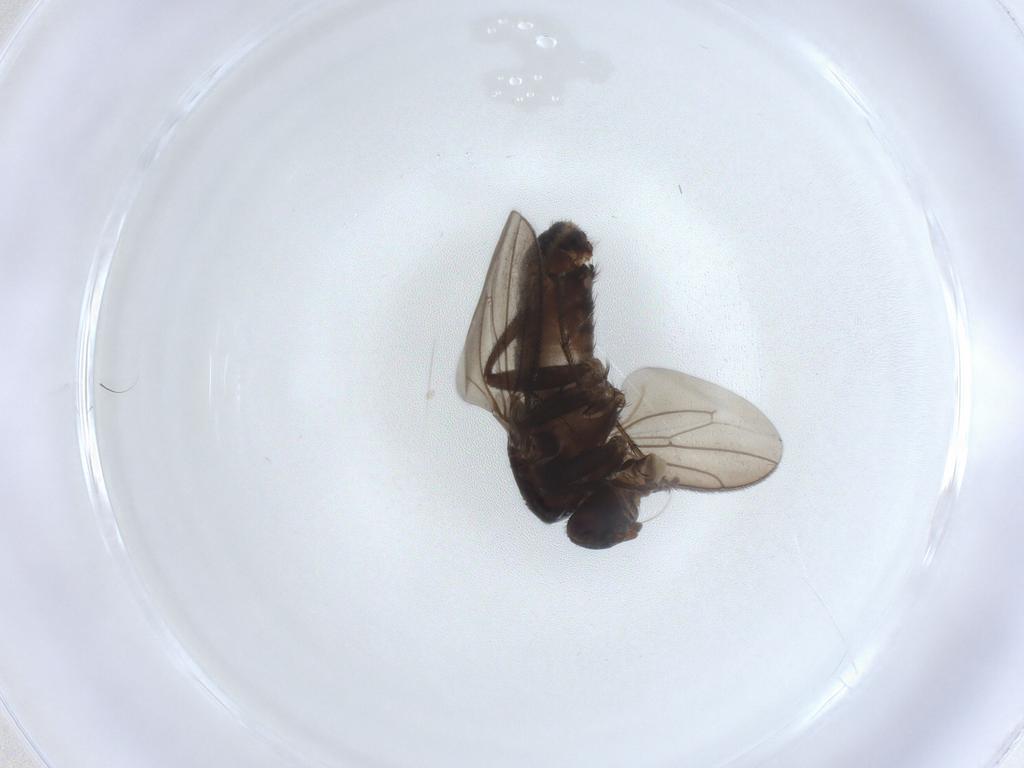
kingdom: Animalia
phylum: Arthropoda
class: Insecta
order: Diptera
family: Sphaeroceridae
